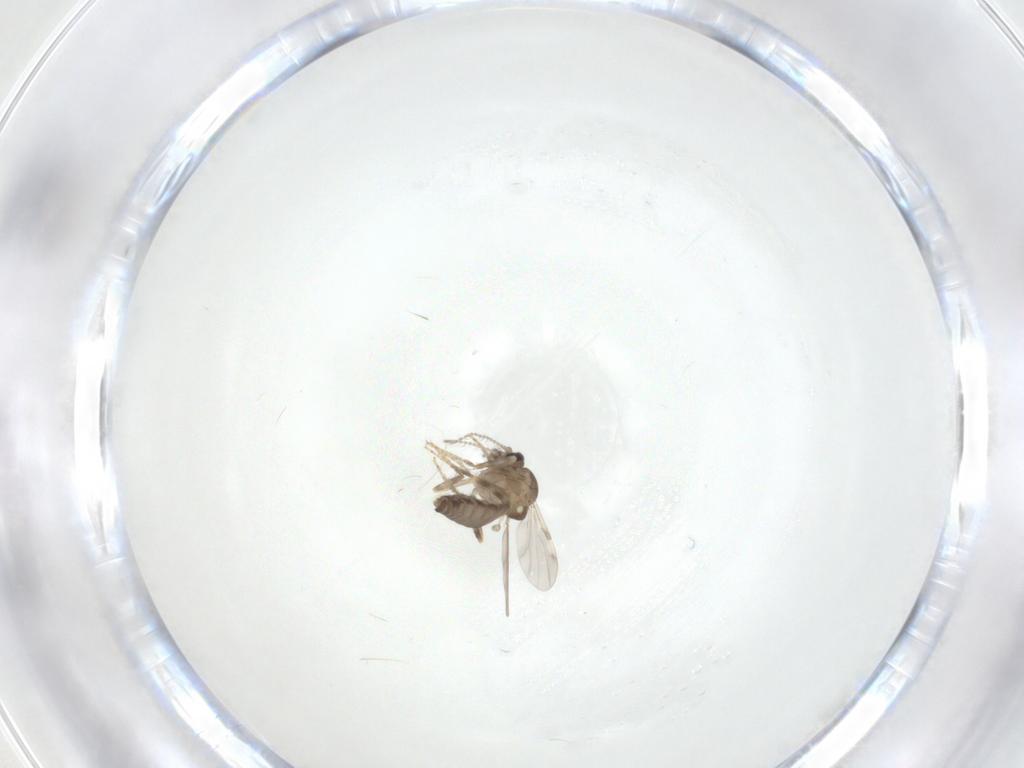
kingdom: Animalia
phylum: Arthropoda
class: Insecta
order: Diptera
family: Ceratopogonidae
